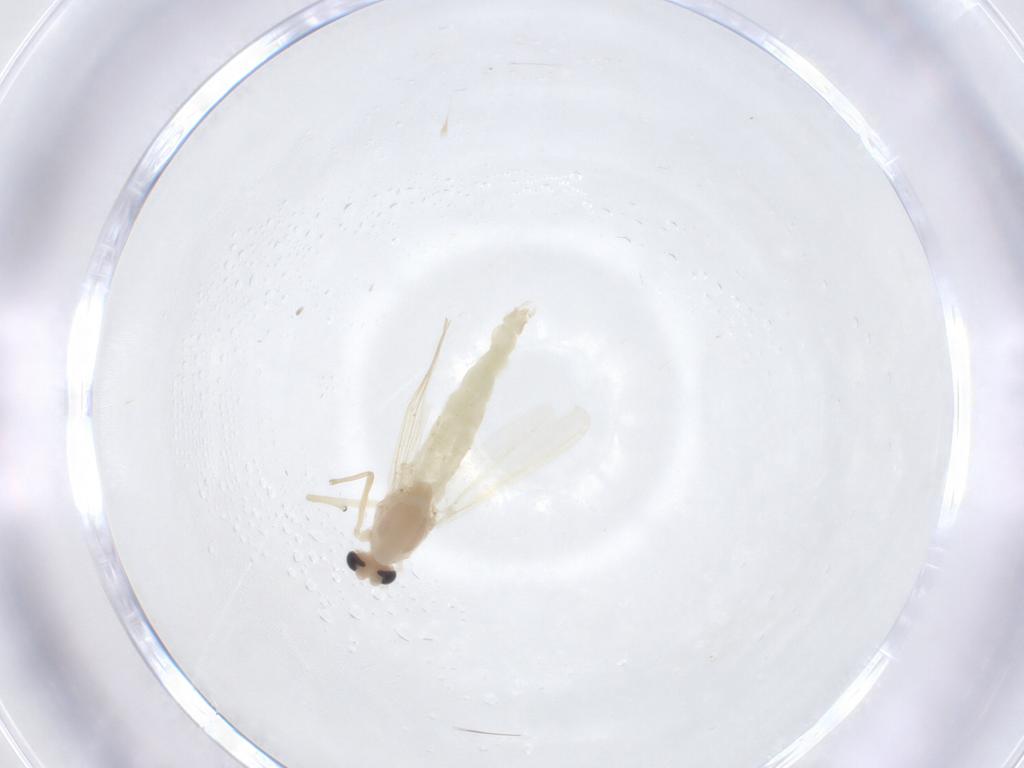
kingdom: Animalia
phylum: Arthropoda
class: Insecta
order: Diptera
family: Chironomidae
